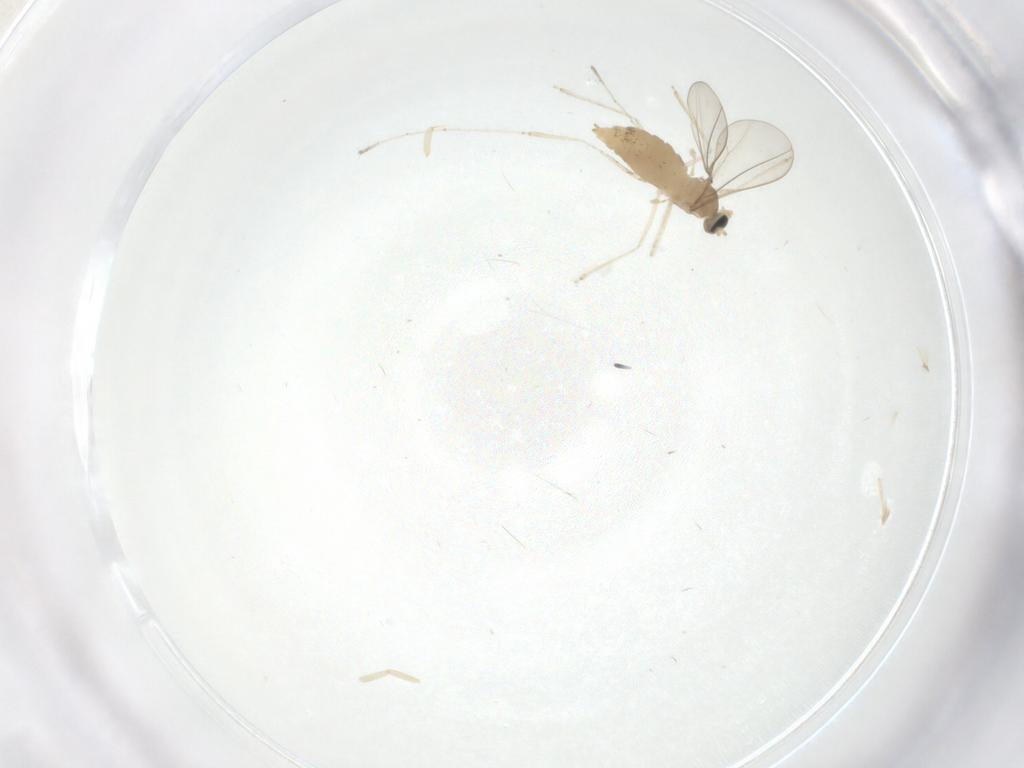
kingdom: Animalia
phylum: Arthropoda
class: Insecta
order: Diptera
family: Cecidomyiidae
